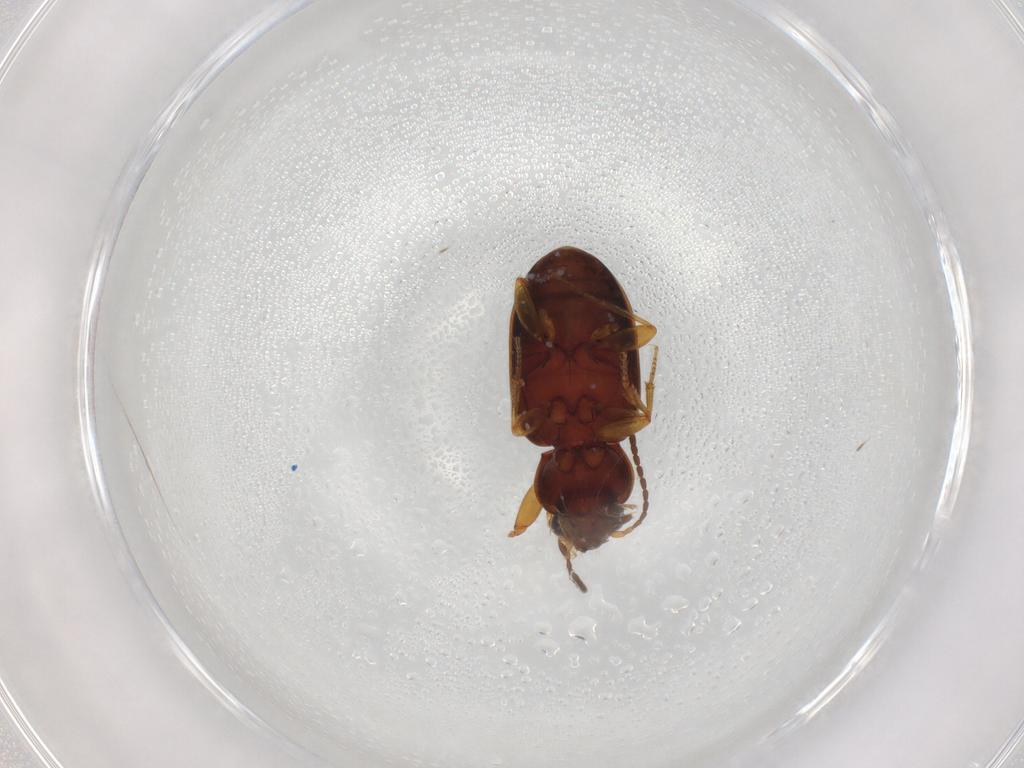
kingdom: Animalia
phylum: Arthropoda
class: Insecta
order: Coleoptera
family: Carabidae
